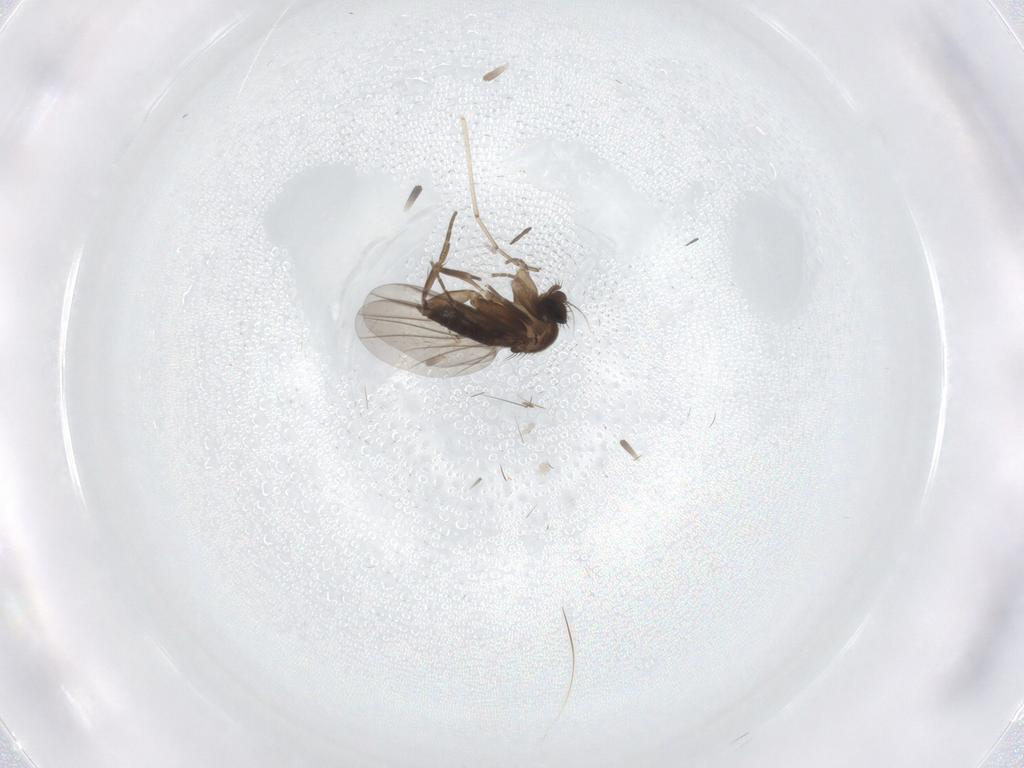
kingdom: Animalia
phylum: Arthropoda
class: Insecta
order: Diptera
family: Cecidomyiidae
